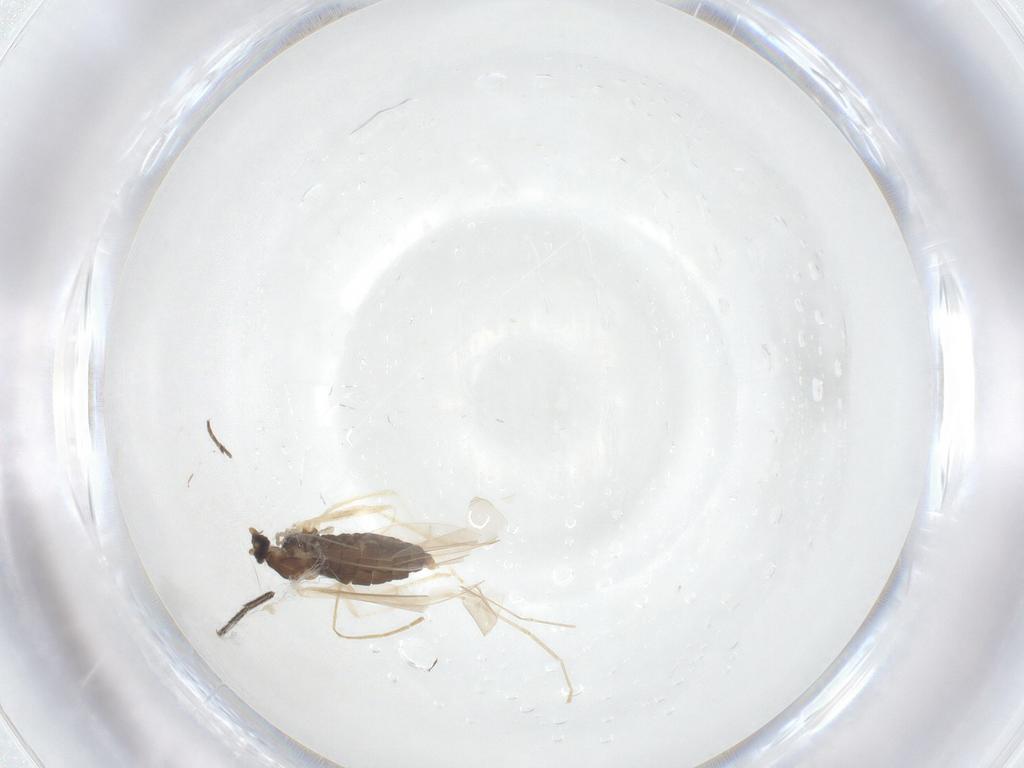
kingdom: Animalia
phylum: Arthropoda
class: Insecta
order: Diptera
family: Cecidomyiidae
